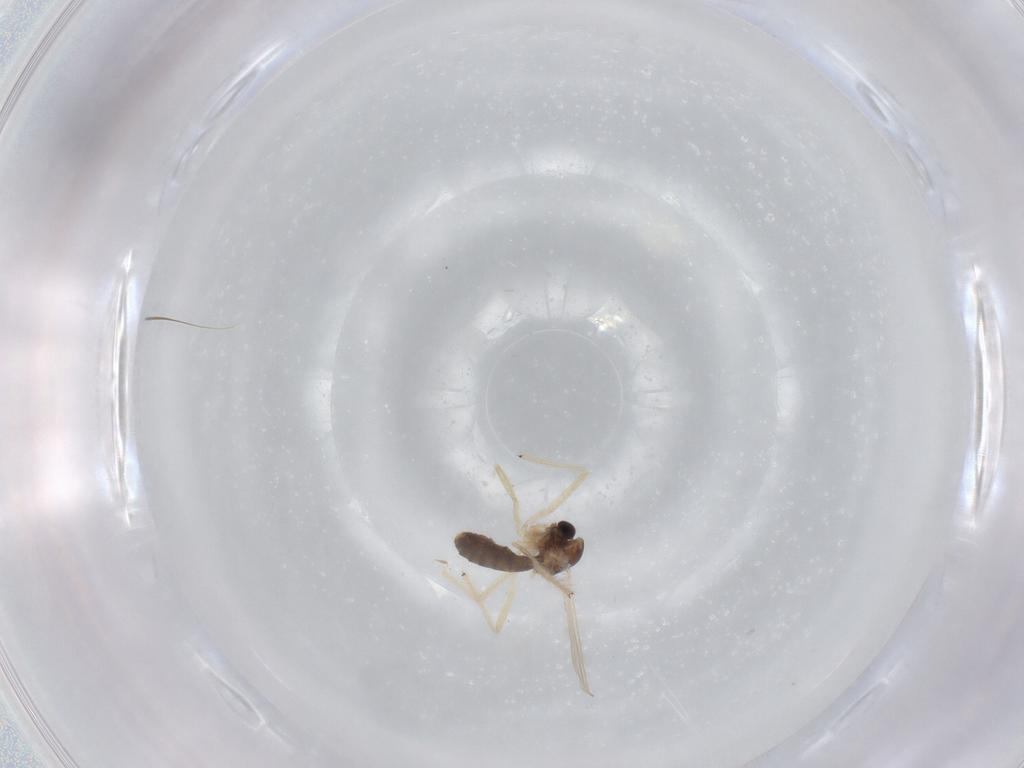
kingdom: Animalia
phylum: Arthropoda
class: Insecta
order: Diptera
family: Chironomidae
